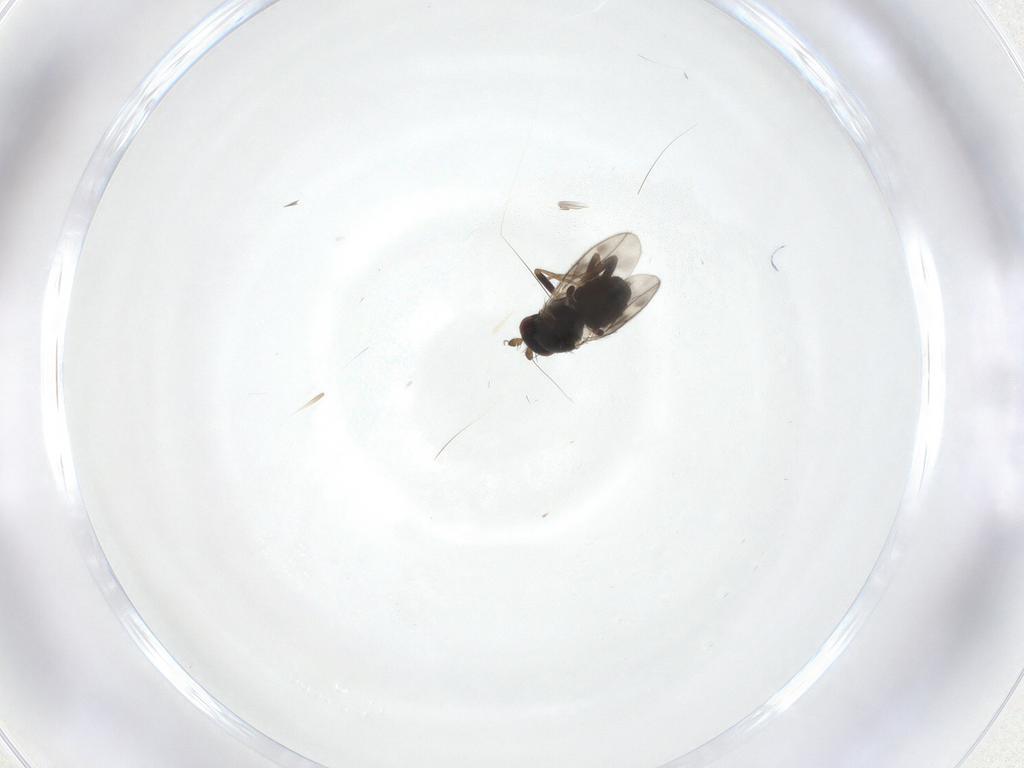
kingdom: Animalia
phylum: Arthropoda
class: Insecta
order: Diptera
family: Sphaeroceridae
